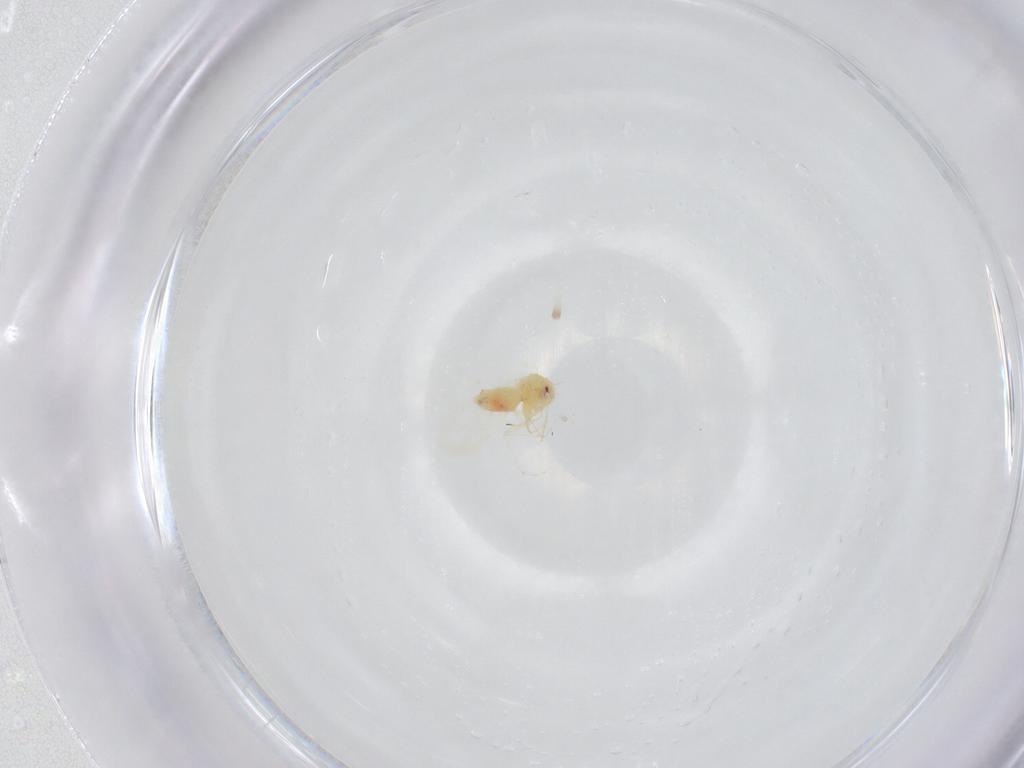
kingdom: Animalia
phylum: Arthropoda
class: Insecta
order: Hemiptera
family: Aleyrodidae
